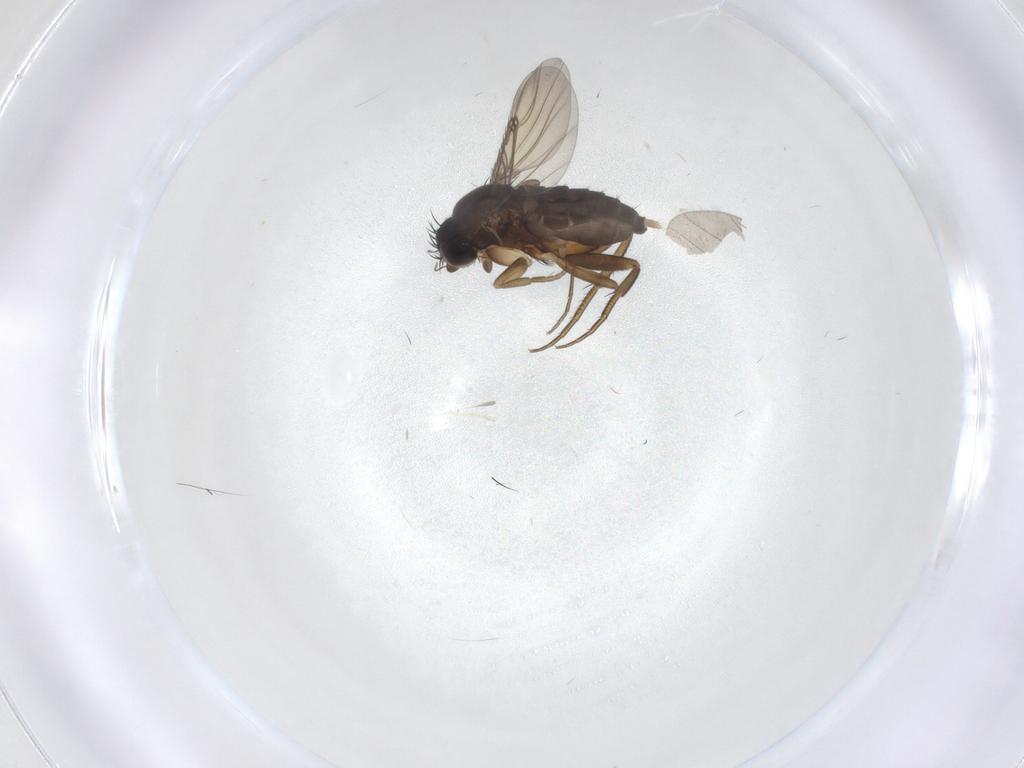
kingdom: Animalia
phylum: Arthropoda
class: Insecta
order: Diptera
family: Phoridae
